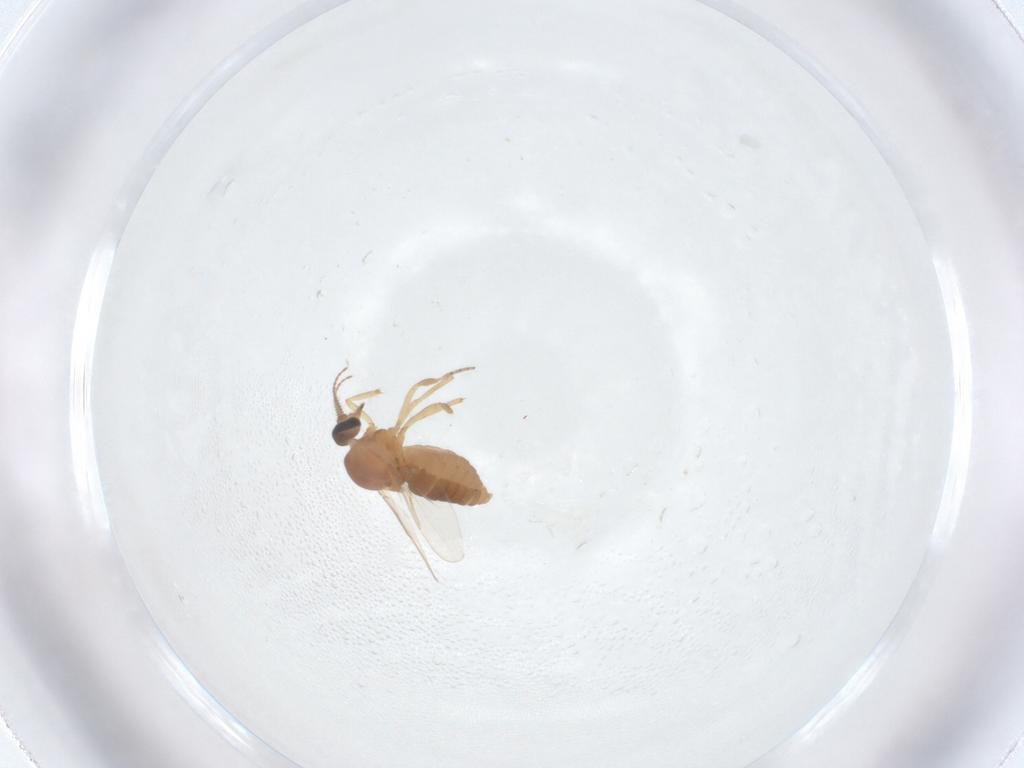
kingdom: Animalia
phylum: Arthropoda
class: Insecta
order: Diptera
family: Ceratopogonidae
